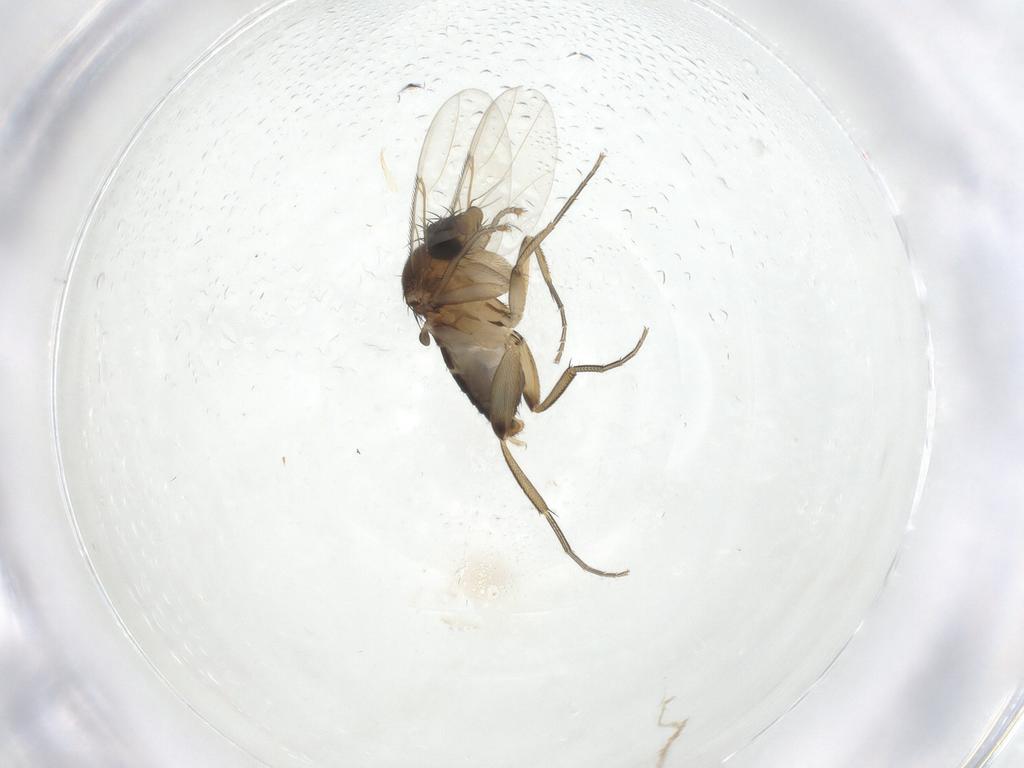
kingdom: Animalia
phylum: Arthropoda
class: Insecta
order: Diptera
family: Phoridae
